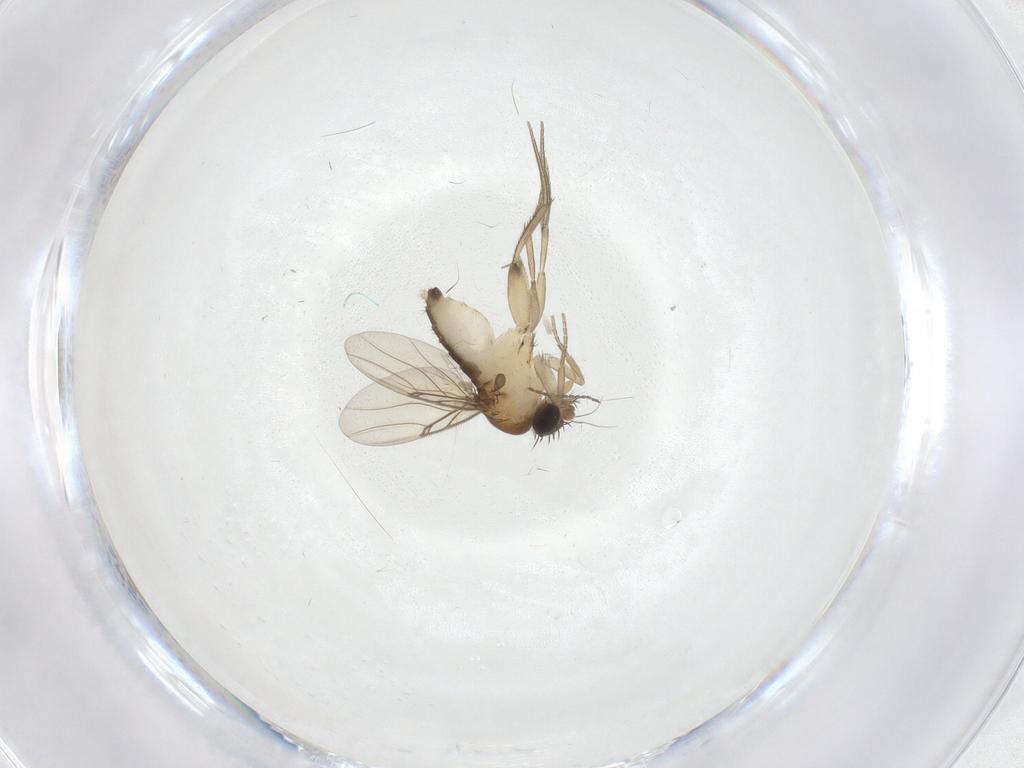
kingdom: Animalia
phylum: Arthropoda
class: Insecta
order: Diptera
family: Phoridae
